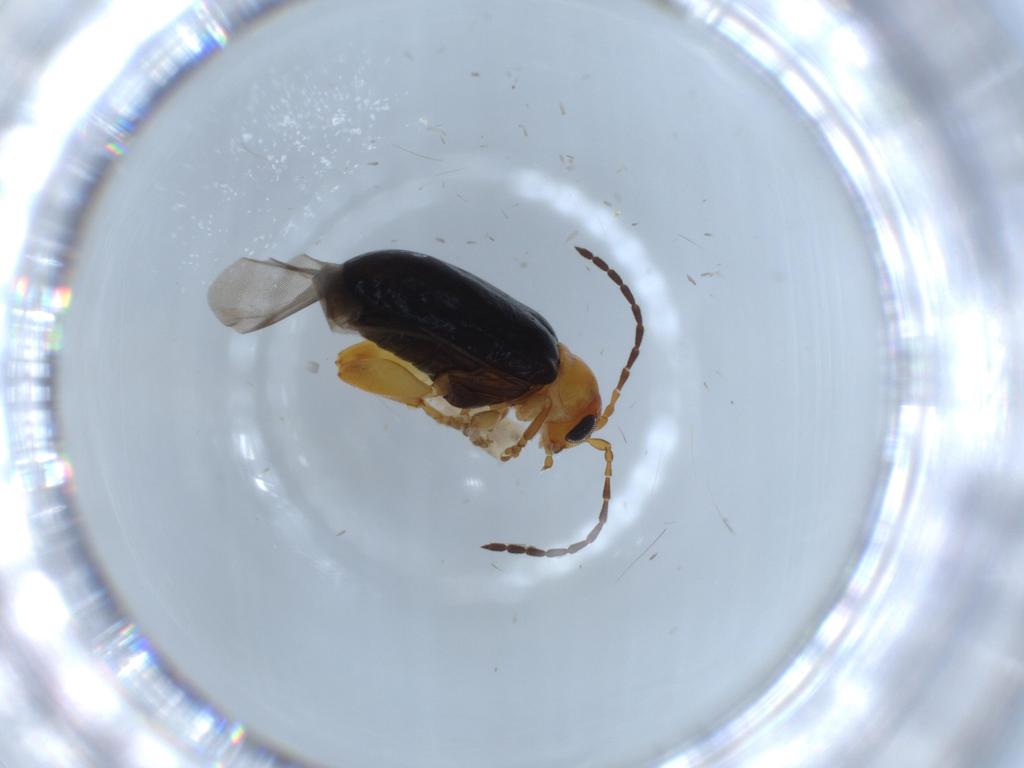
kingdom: Animalia
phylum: Arthropoda
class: Insecta
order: Coleoptera
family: Chrysomelidae
